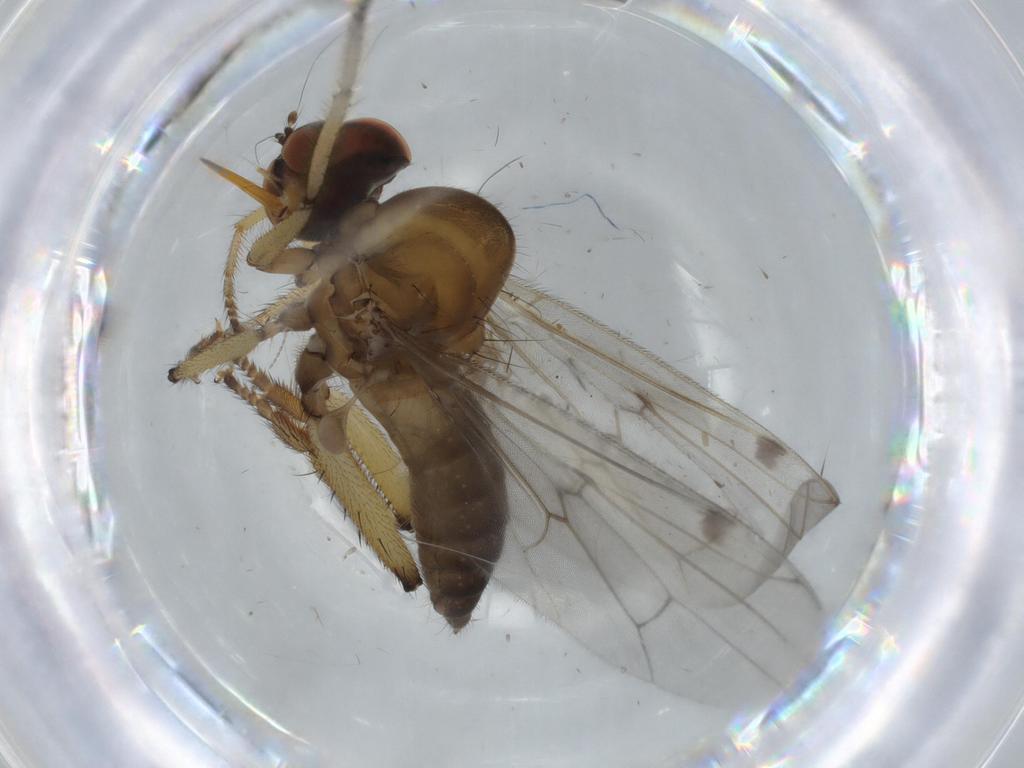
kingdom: Animalia
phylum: Arthropoda
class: Insecta
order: Diptera
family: Hybotidae
